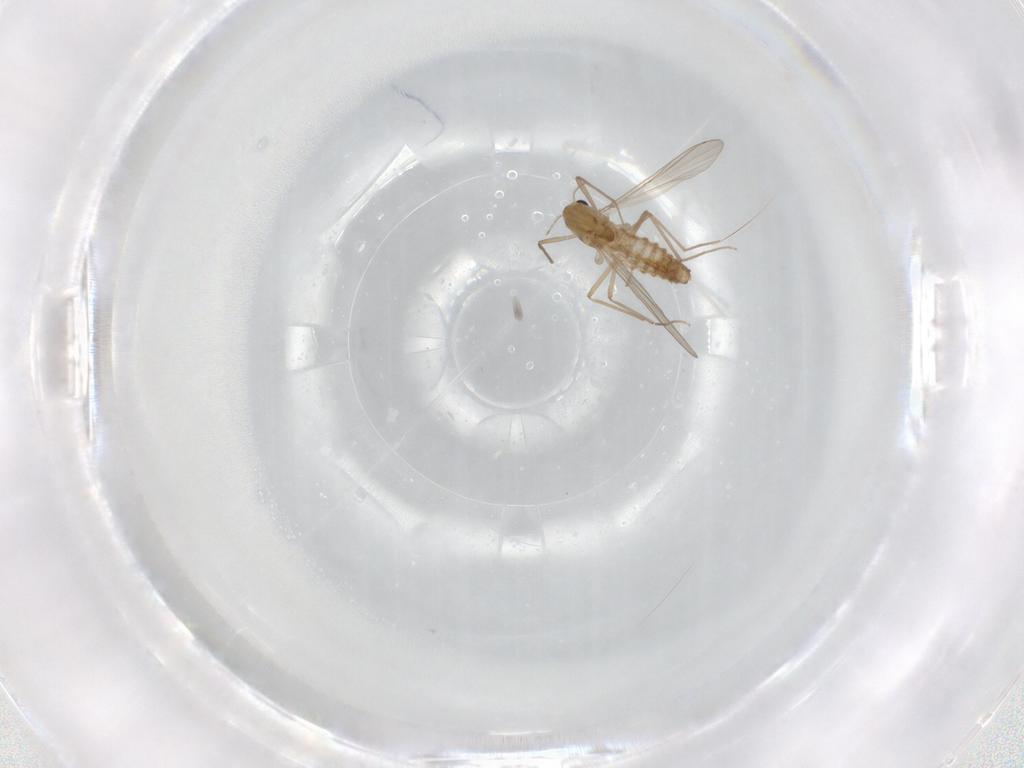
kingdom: Animalia
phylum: Arthropoda
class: Insecta
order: Diptera
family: Chironomidae
